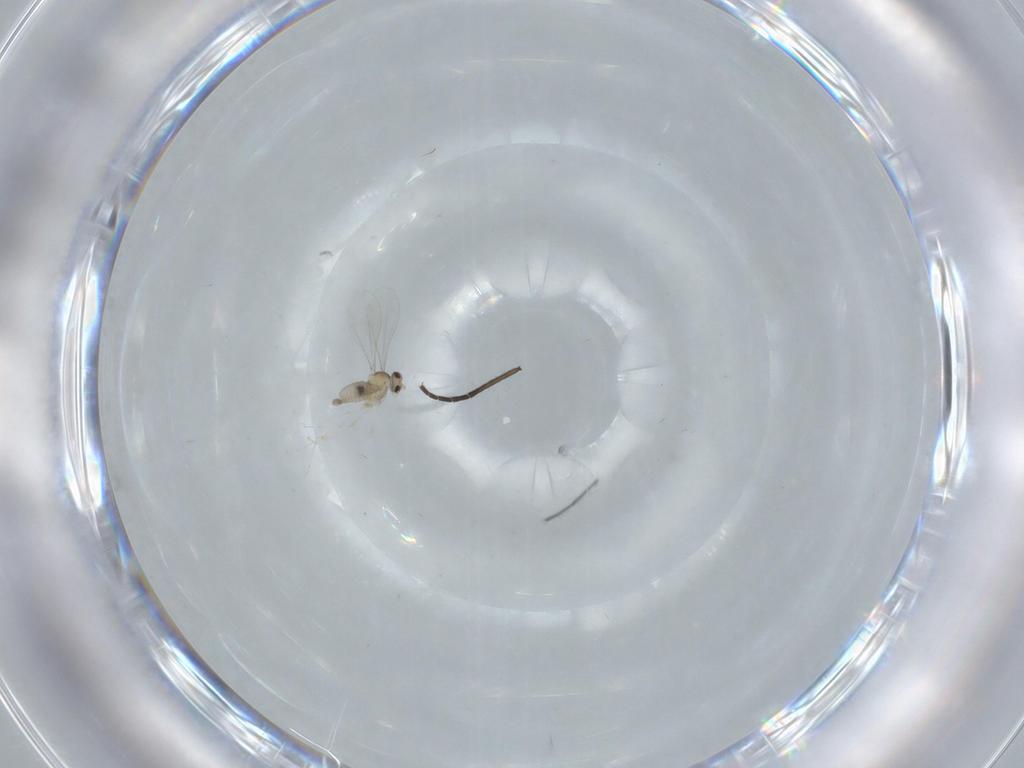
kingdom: Animalia
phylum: Arthropoda
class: Insecta
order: Diptera
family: Cecidomyiidae
